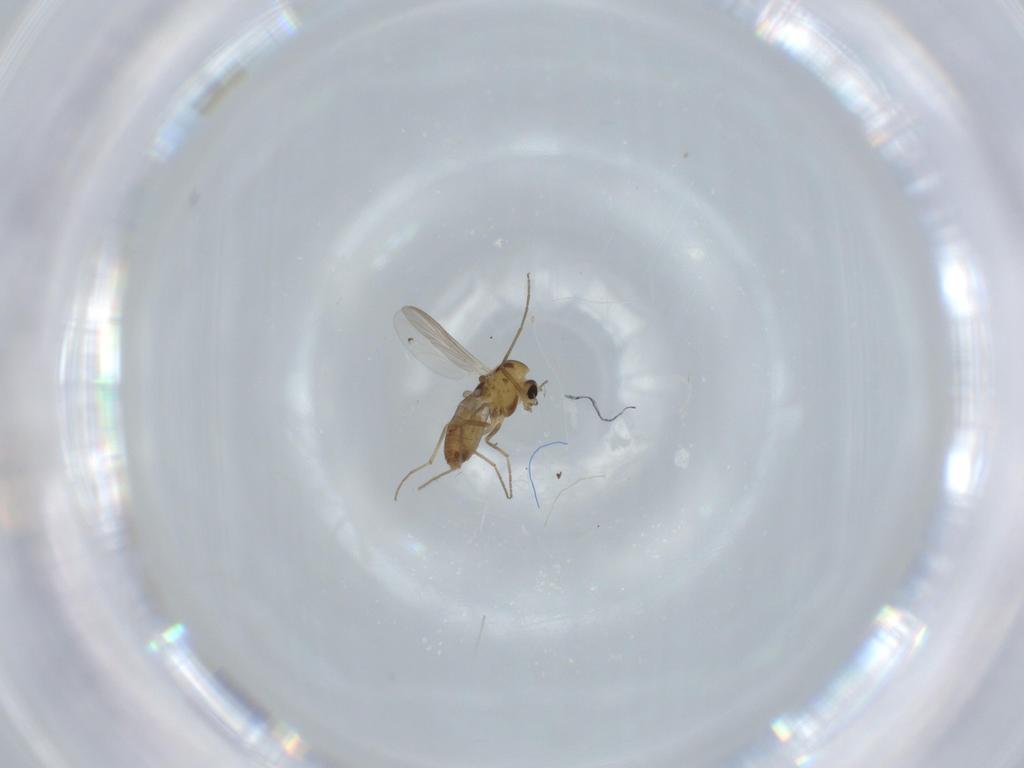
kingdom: Animalia
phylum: Arthropoda
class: Insecta
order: Diptera
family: Chironomidae
